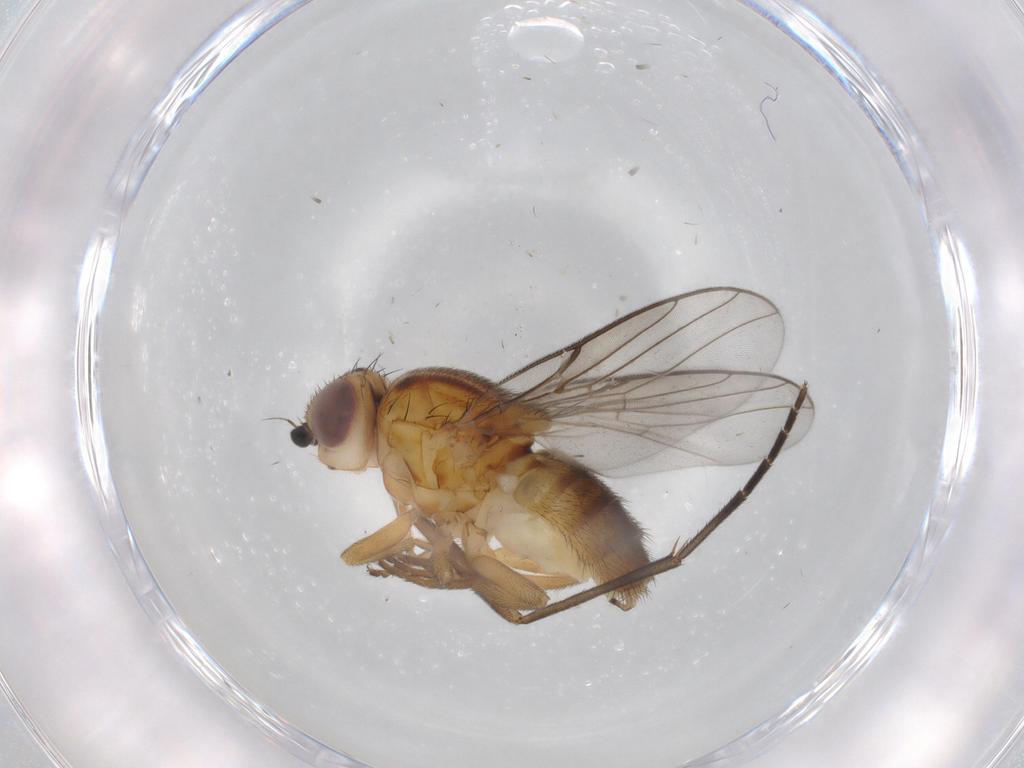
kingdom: Animalia
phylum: Arthropoda
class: Insecta
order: Diptera
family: Chloropidae
